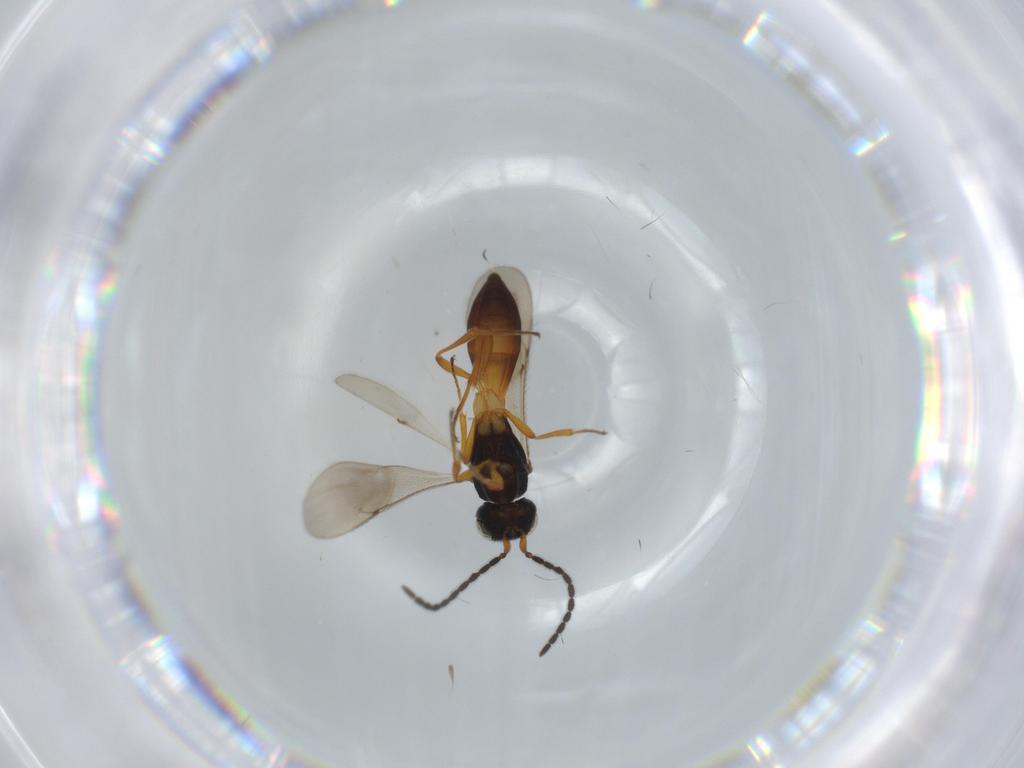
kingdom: Animalia
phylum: Arthropoda
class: Insecta
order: Hymenoptera
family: Scelionidae
